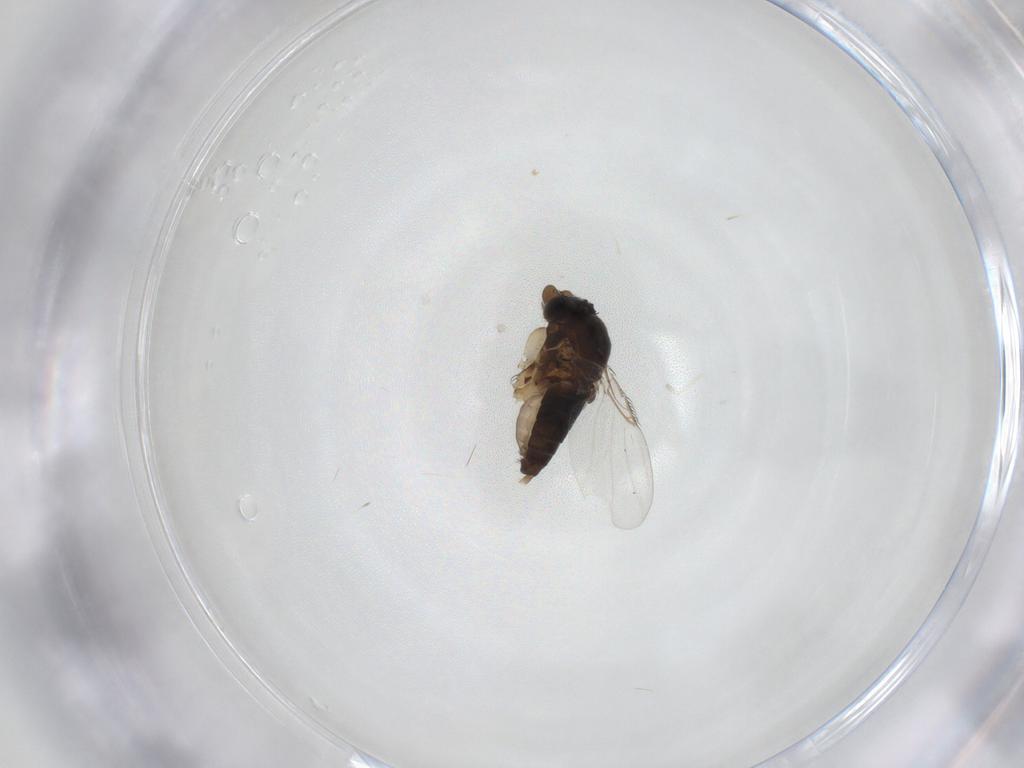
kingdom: Animalia
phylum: Arthropoda
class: Insecta
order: Diptera
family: Phoridae
